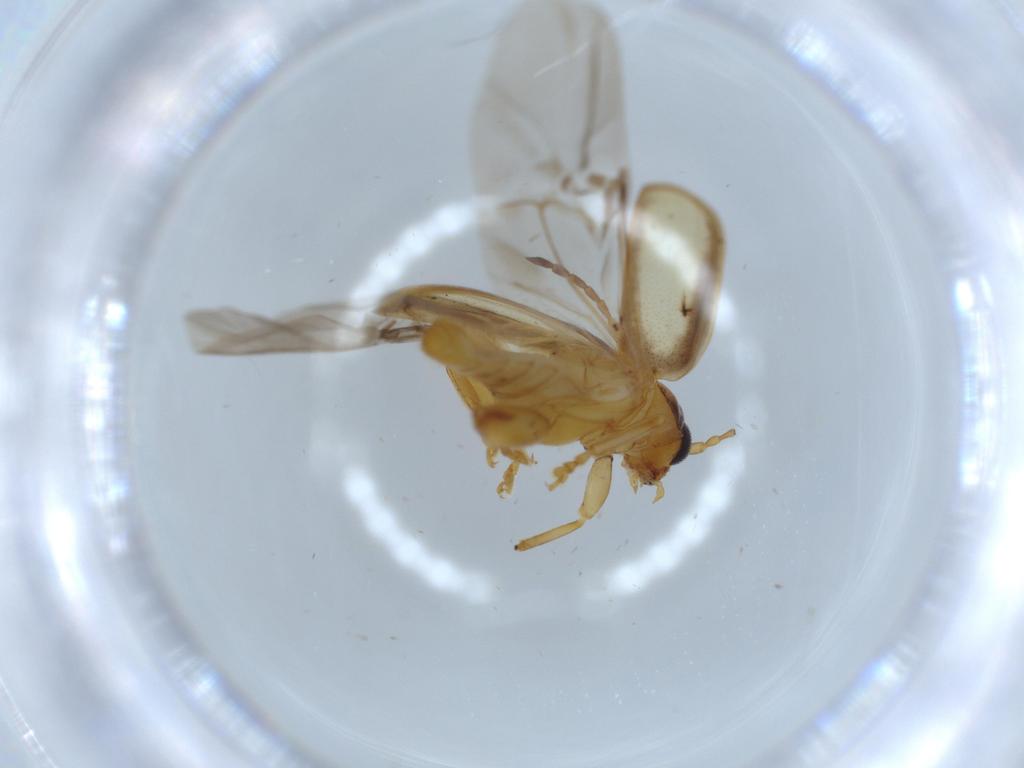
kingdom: Animalia
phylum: Arthropoda
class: Insecta
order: Coleoptera
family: Chrysomelidae
